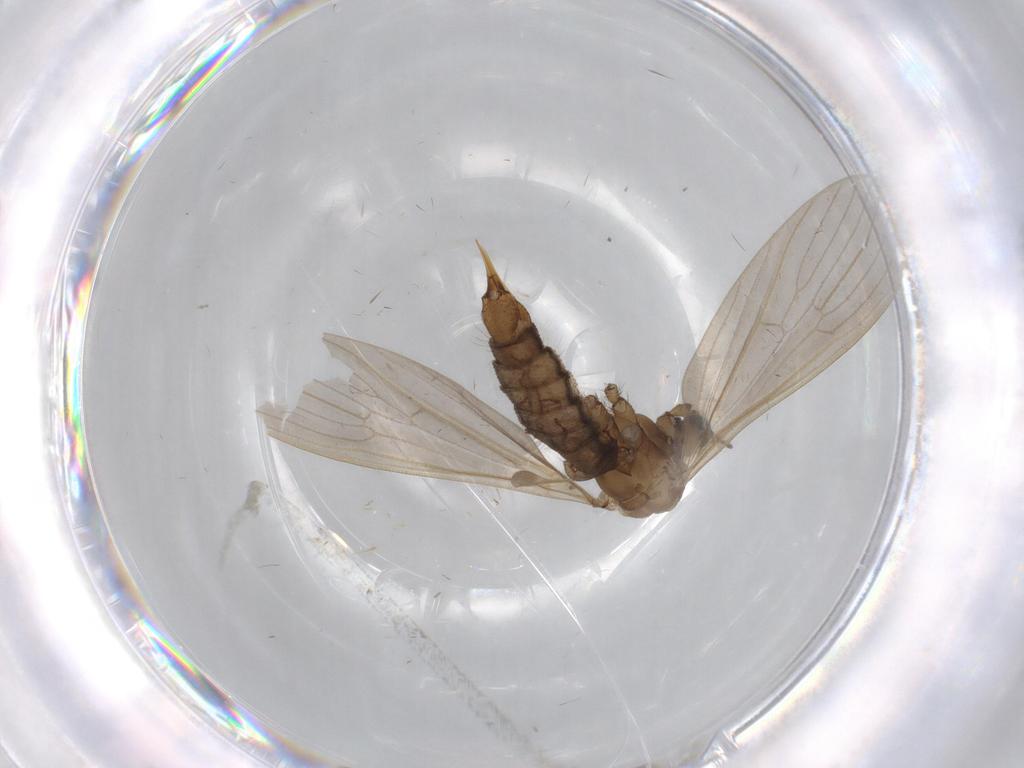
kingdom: Animalia
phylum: Arthropoda
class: Insecta
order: Diptera
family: Limoniidae
